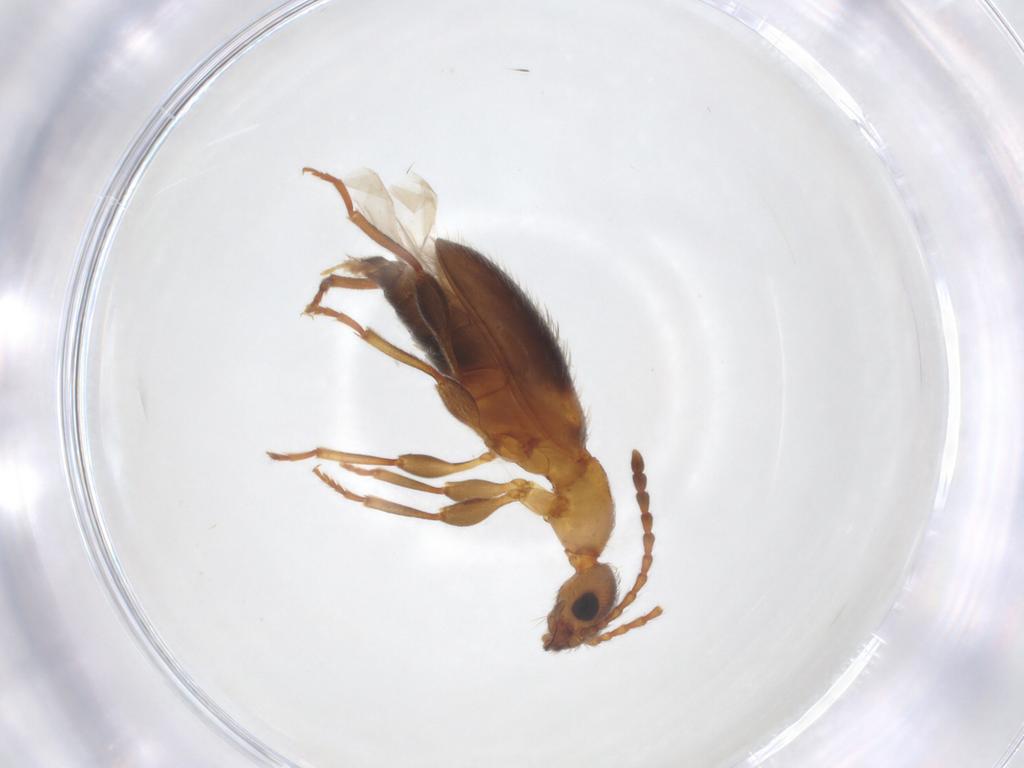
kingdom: Animalia
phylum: Arthropoda
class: Insecta
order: Coleoptera
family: Anthicidae
